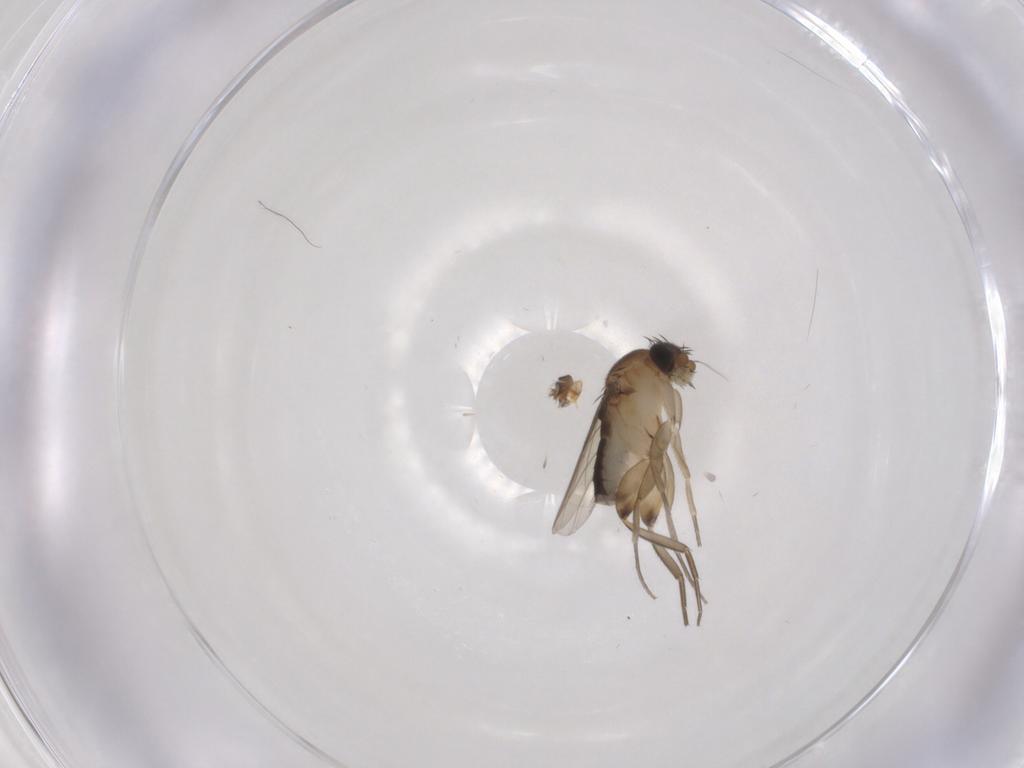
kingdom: Animalia
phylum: Arthropoda
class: Insecta
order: Diptera
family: Phoridae
